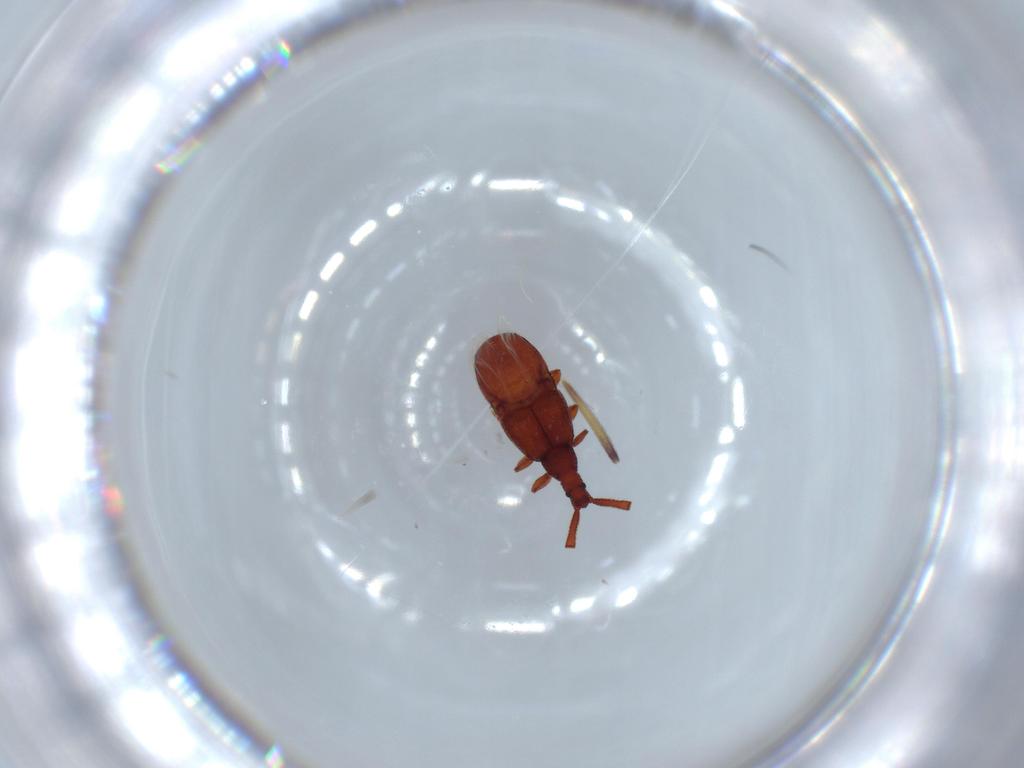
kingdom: Animalia
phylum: Arthropoda
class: Insecta
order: Coleoptera
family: Staphylinidae
